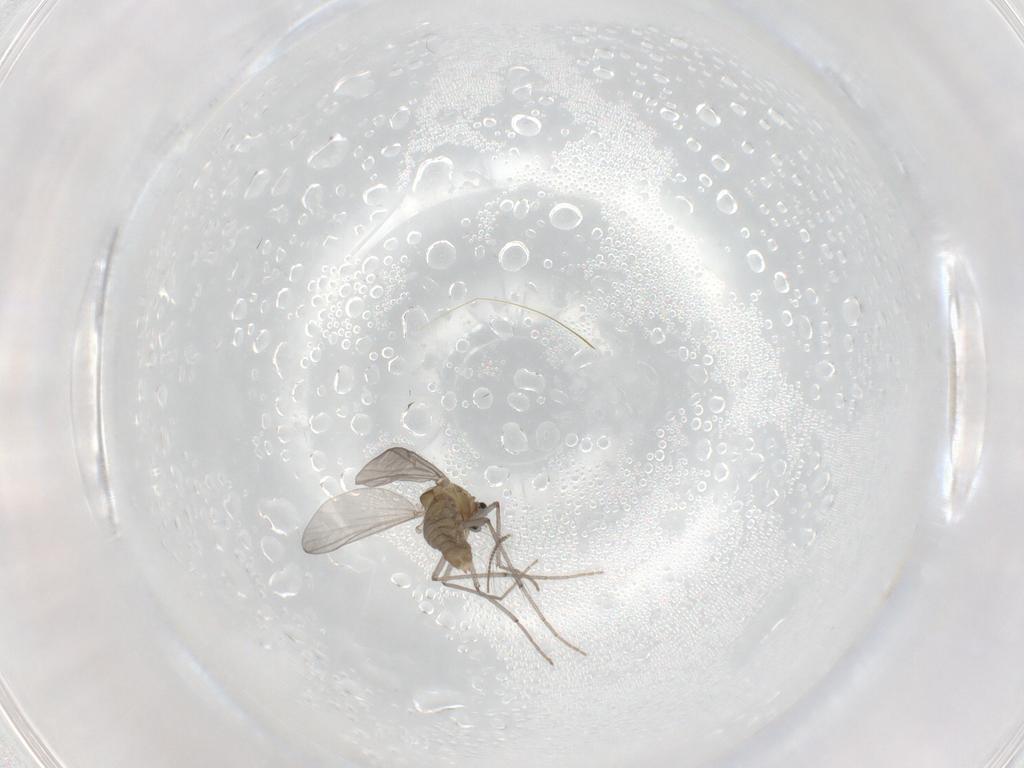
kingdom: Animalia
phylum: Arthropoda
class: Insecta
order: Diptera
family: Chironomidae
